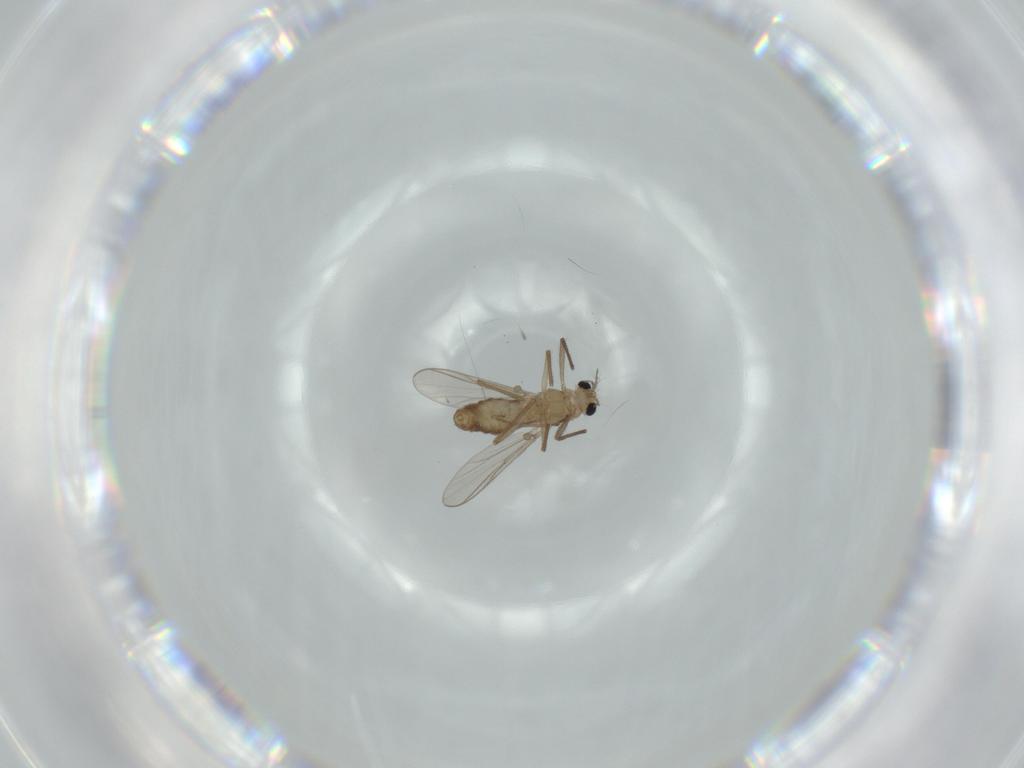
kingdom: Animalia
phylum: Arthropoda
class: Insecta
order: Diptera
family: Chironomidae
